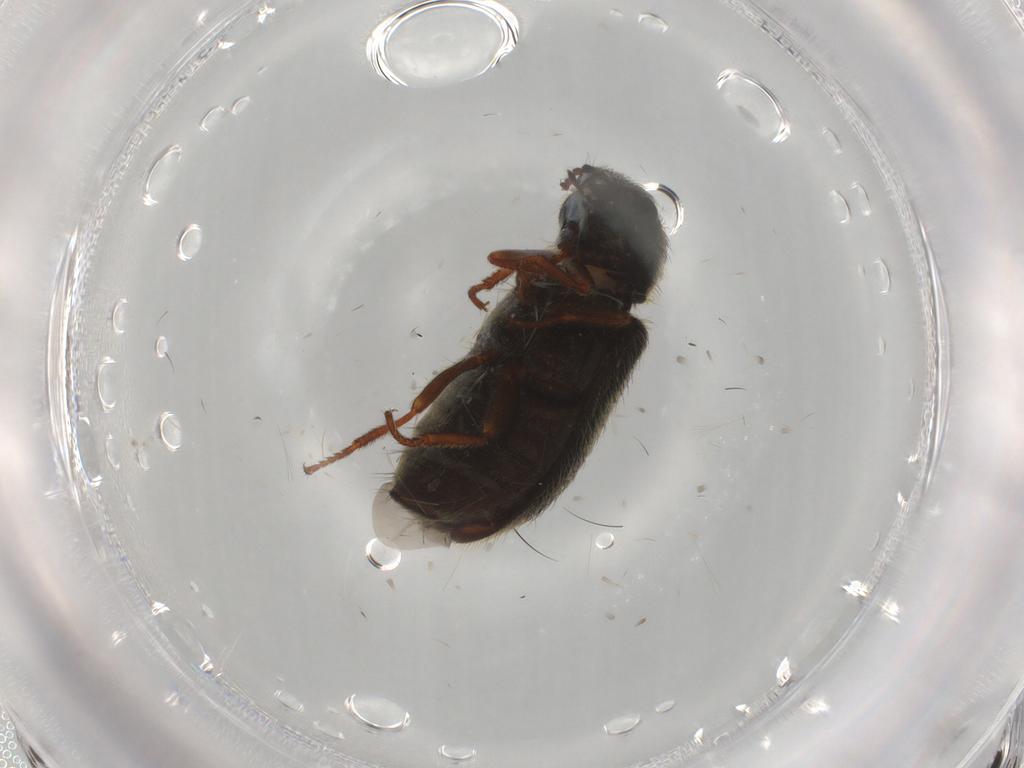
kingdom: Animalia
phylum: Arthropoda
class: Insecta
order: Coleoptera
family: Melyridae
